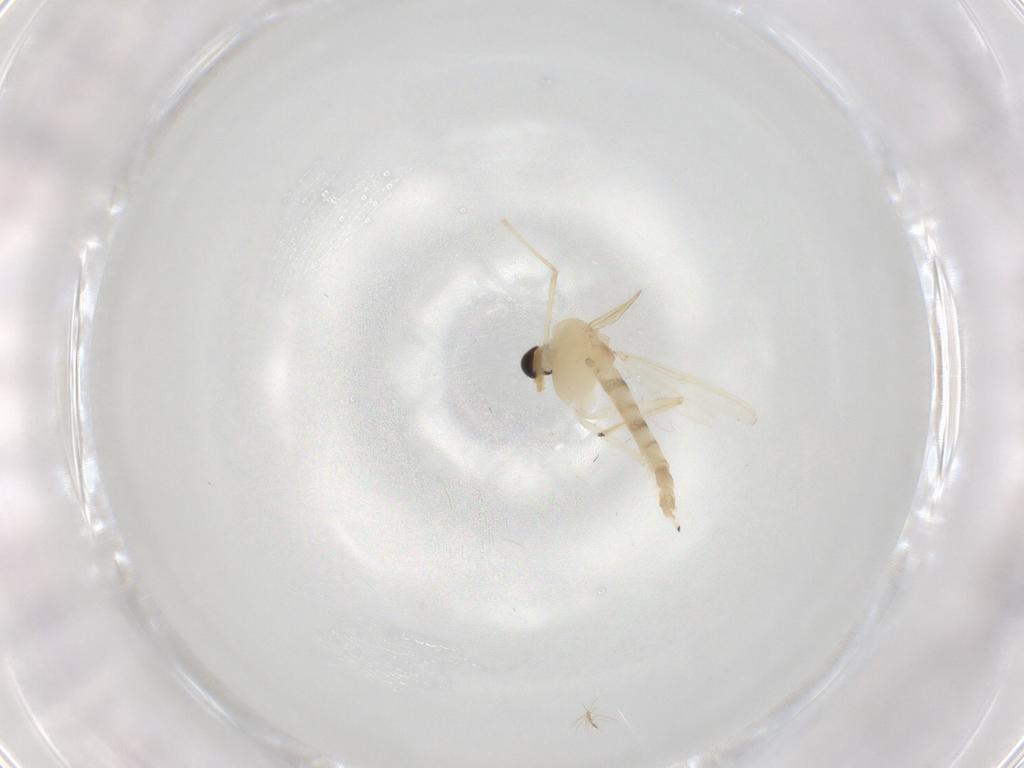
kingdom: Animalia
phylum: Arthropoda
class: Insecta
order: Diptera
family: Chironomidae
